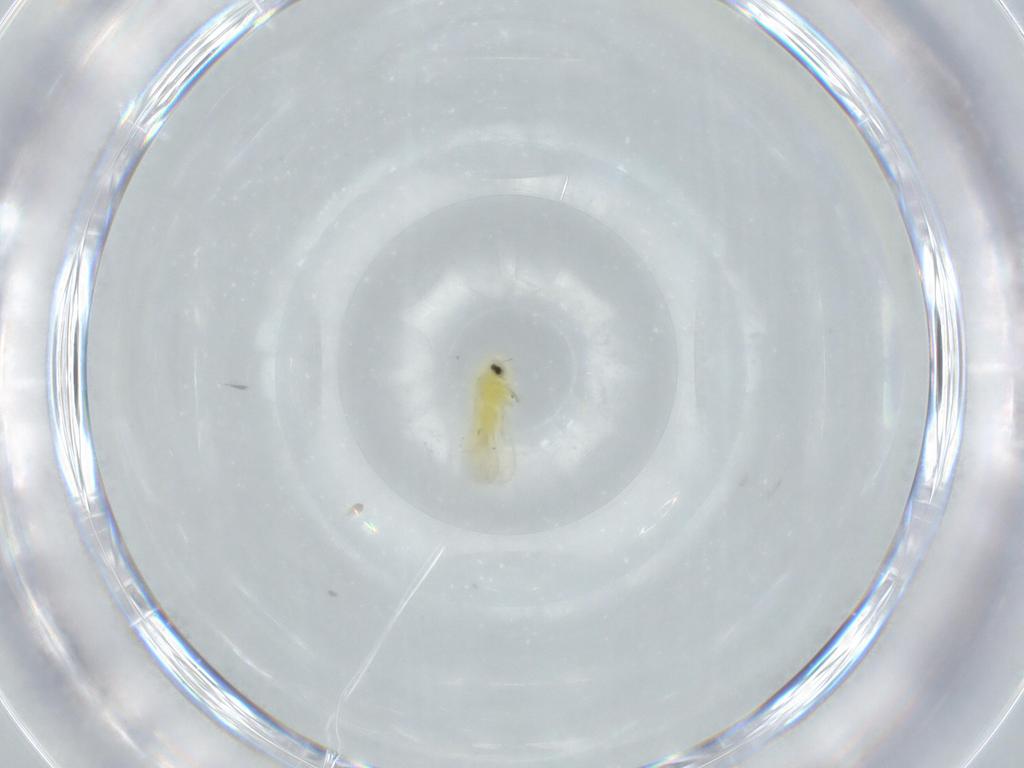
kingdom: Animalia
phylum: Arthropoda
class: Insecta
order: Hemiptera
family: Aleyrodidae
